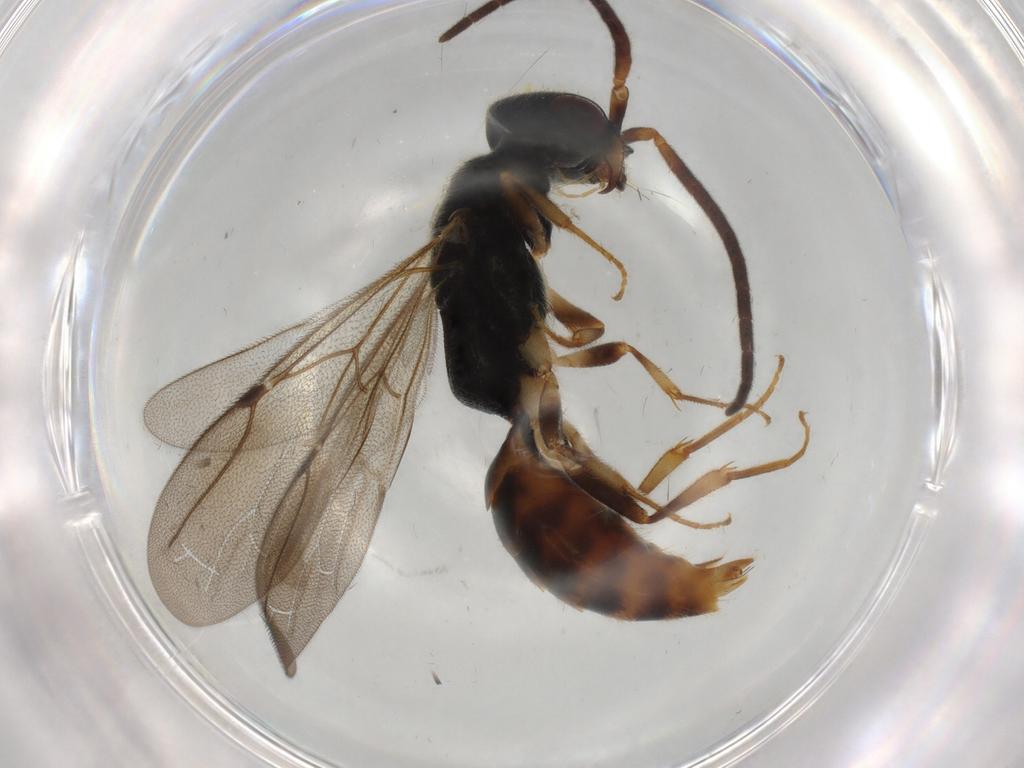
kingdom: Animalia
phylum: Arthropoda
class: Insecta
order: Hymenoptera
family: Bethylidae
